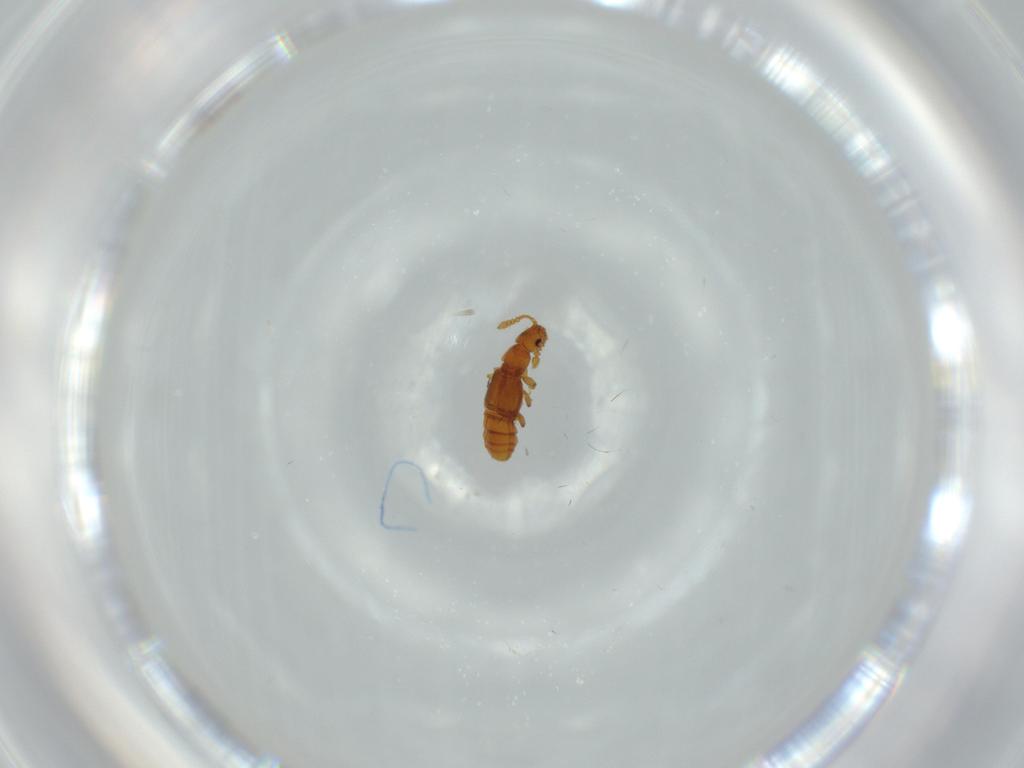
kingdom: Animalia
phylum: Arthropoda
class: Insecta
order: Coleoptera
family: Staphylinidae
